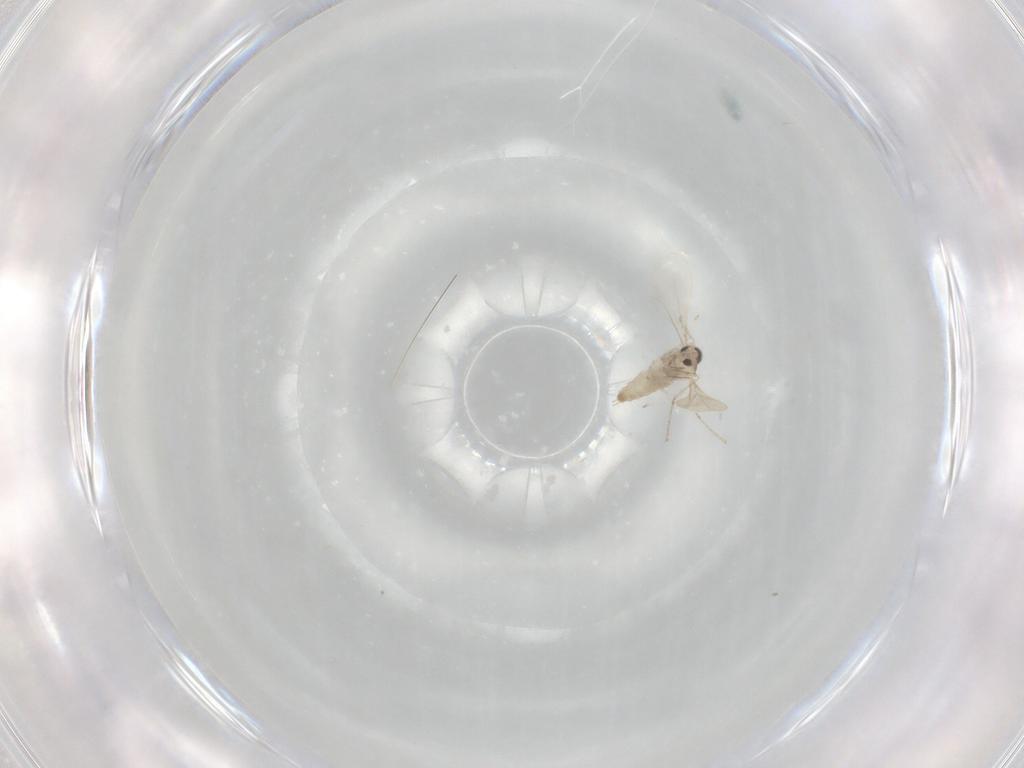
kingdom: Animalia
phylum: Arthropoda
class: Insecta
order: Diptera
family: Cecidomyiidae
